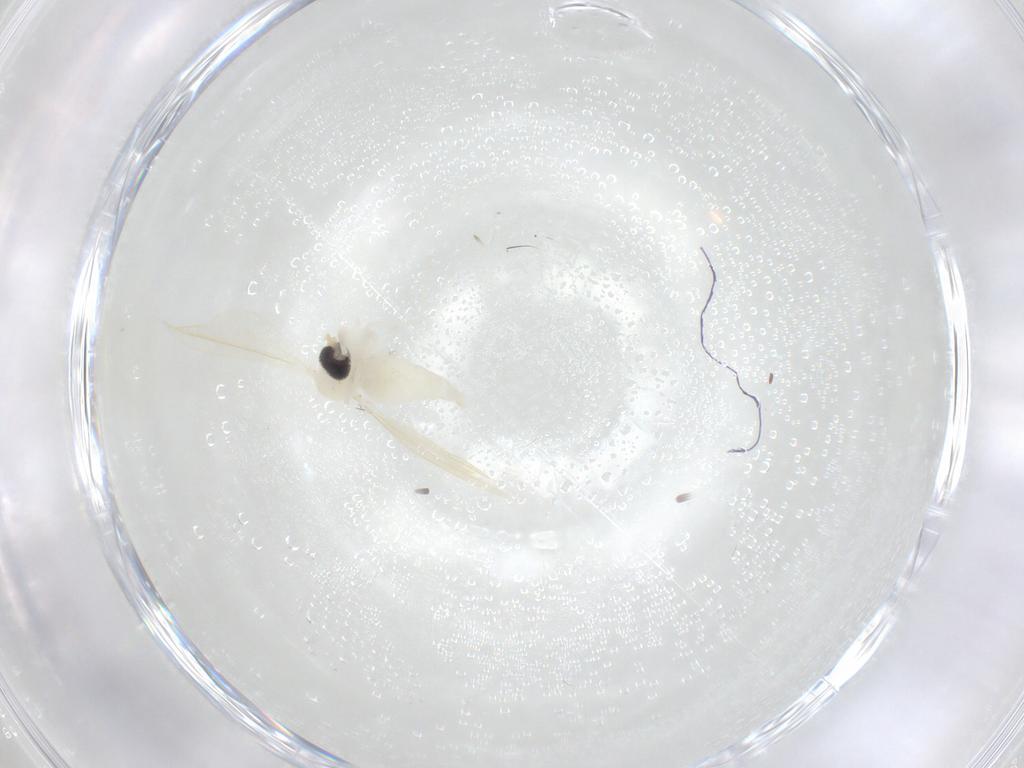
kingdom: Animalia
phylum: Arthropoda
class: Insecta
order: Diptera
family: Cecidomyiidae
